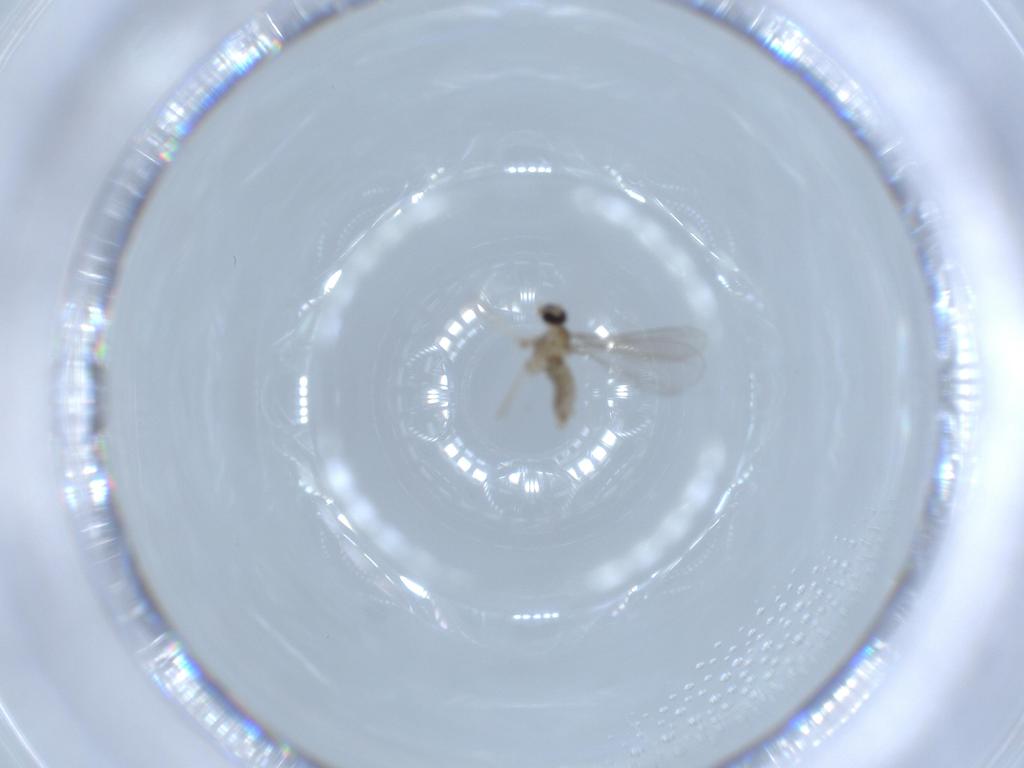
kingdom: Animalia
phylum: Arthropoda
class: Insecta
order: Diptera
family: Cecidomyiidae
